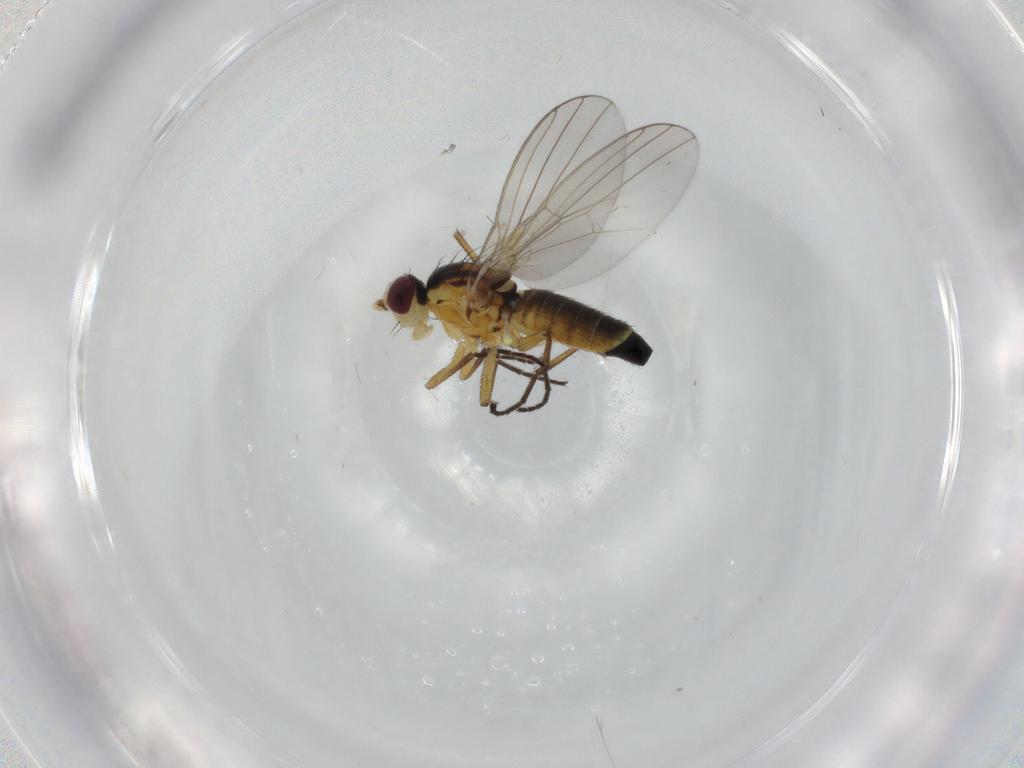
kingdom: Animalia
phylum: Arthropoda
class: Insecta
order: Diptera
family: Agromyzidae
